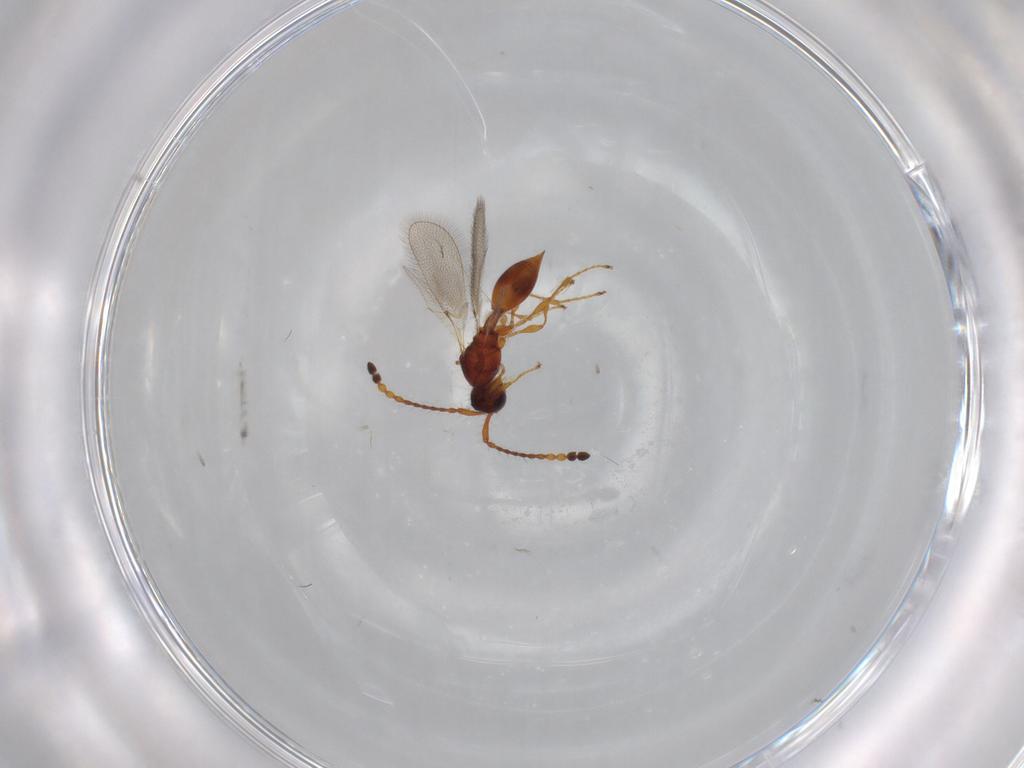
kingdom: Animalia
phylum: Arthropoda
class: Insecta
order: Hymenoptera
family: Diapriidae
